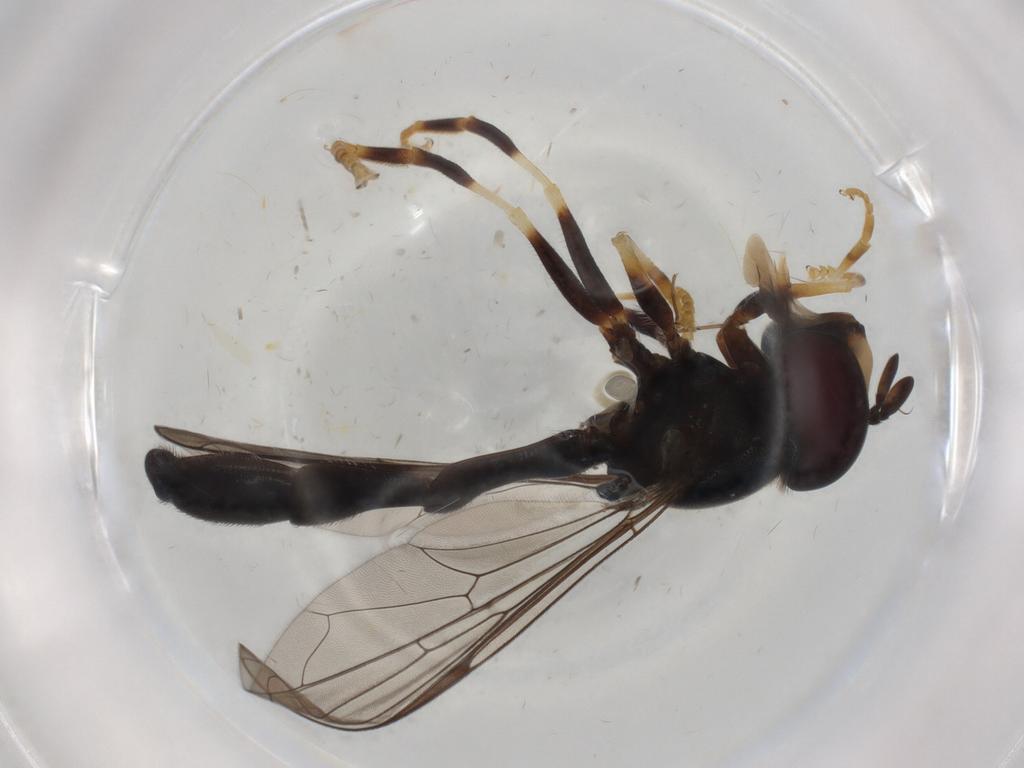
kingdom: Animalia
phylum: Arthropoda
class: Insecta
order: Diptera
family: Syrphidae
